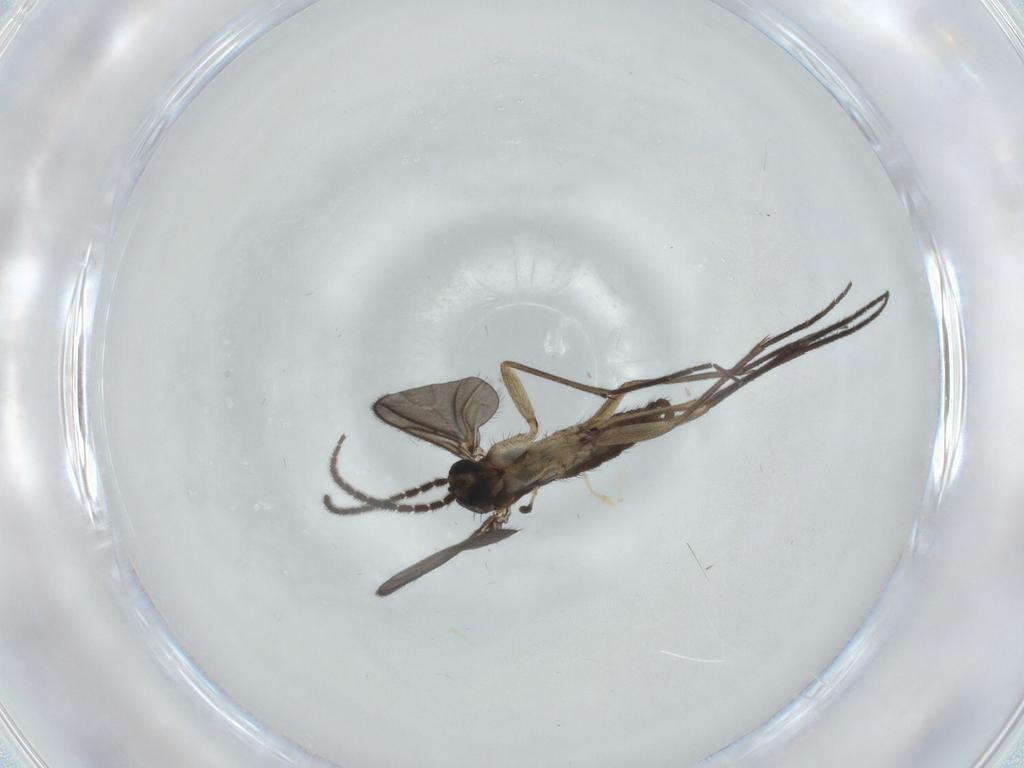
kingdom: Animalia
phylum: Arthropoda
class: Insecta
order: Diptera
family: Sciaridae
